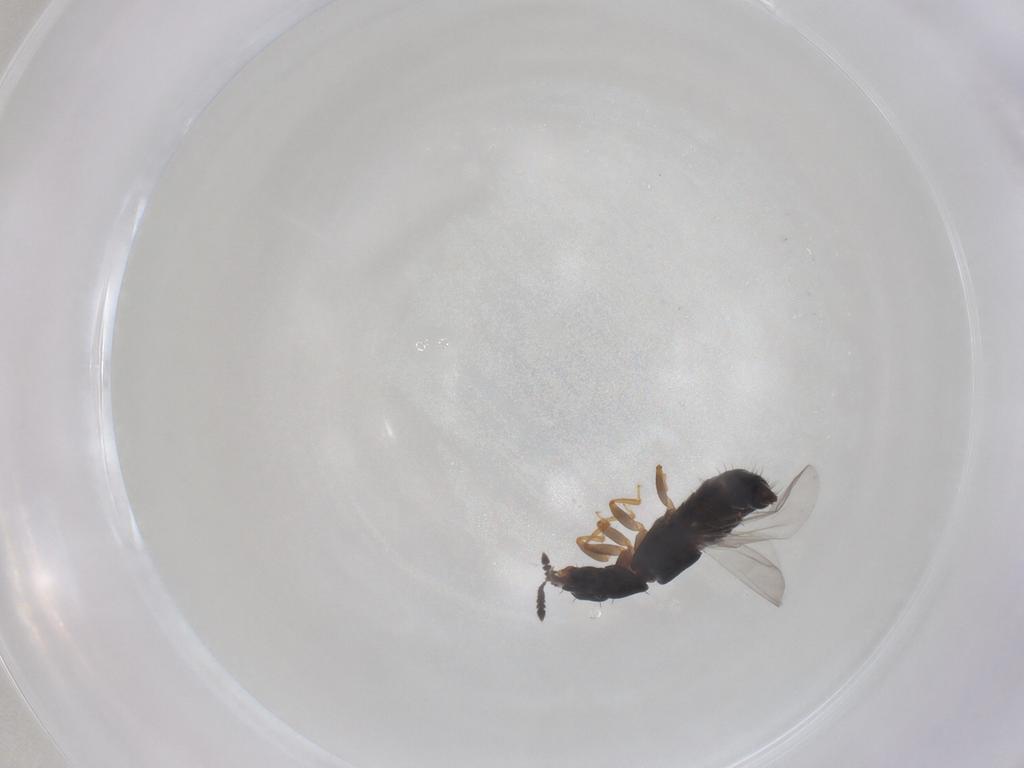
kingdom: Animalia
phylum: Arthropoda
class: Insecta
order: Coleoptera
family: Staphylinidae
